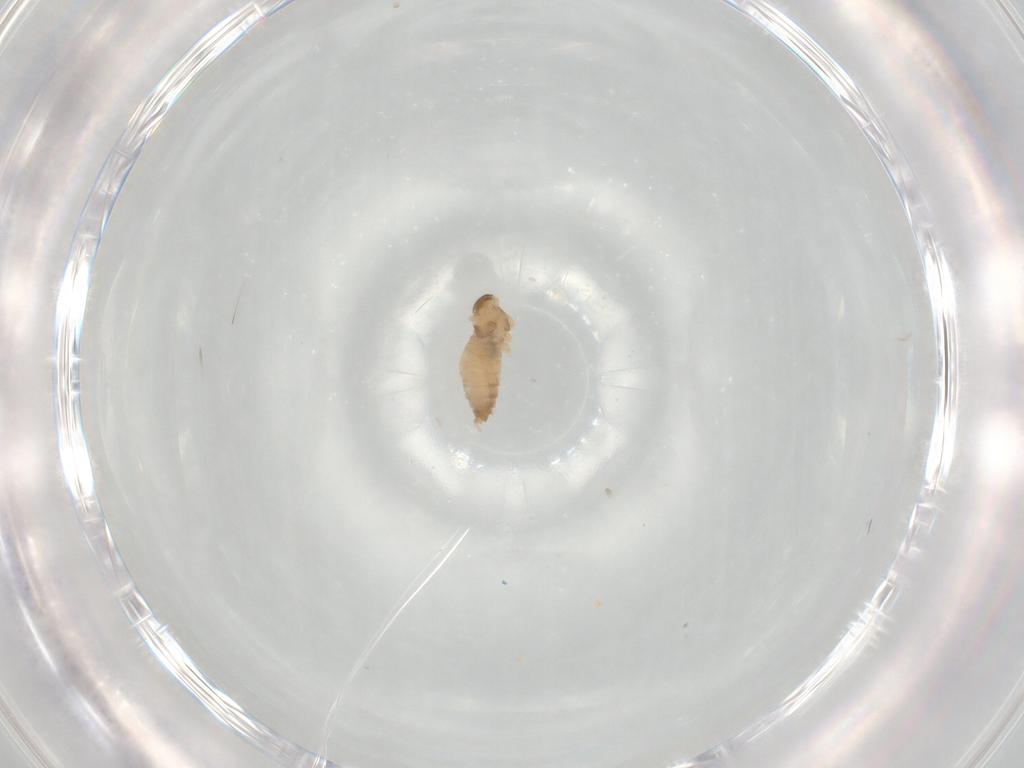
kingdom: Animalia
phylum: Arthropoda
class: Insecta
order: Diptera
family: Cecidomyiidae
